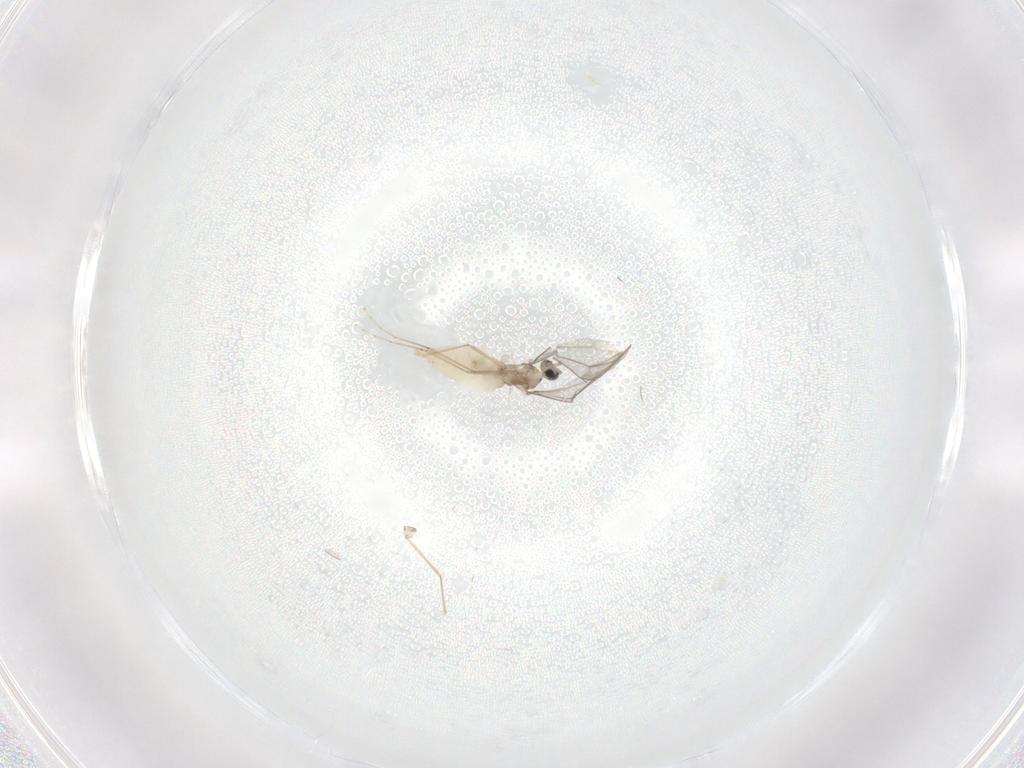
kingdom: Animalia
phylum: Arthropoda
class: Insecta
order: Diptera
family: Cecidomyiidae
